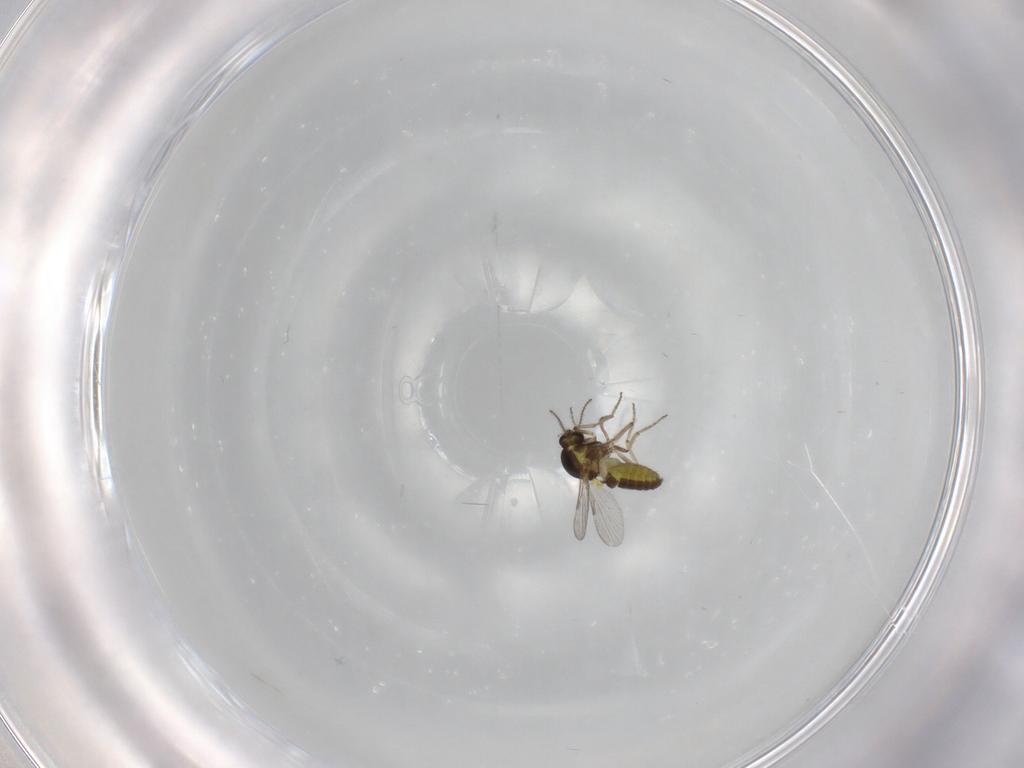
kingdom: Animalia
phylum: Arthropoda
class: Insecta
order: Diptera
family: Ceratopogonidae
